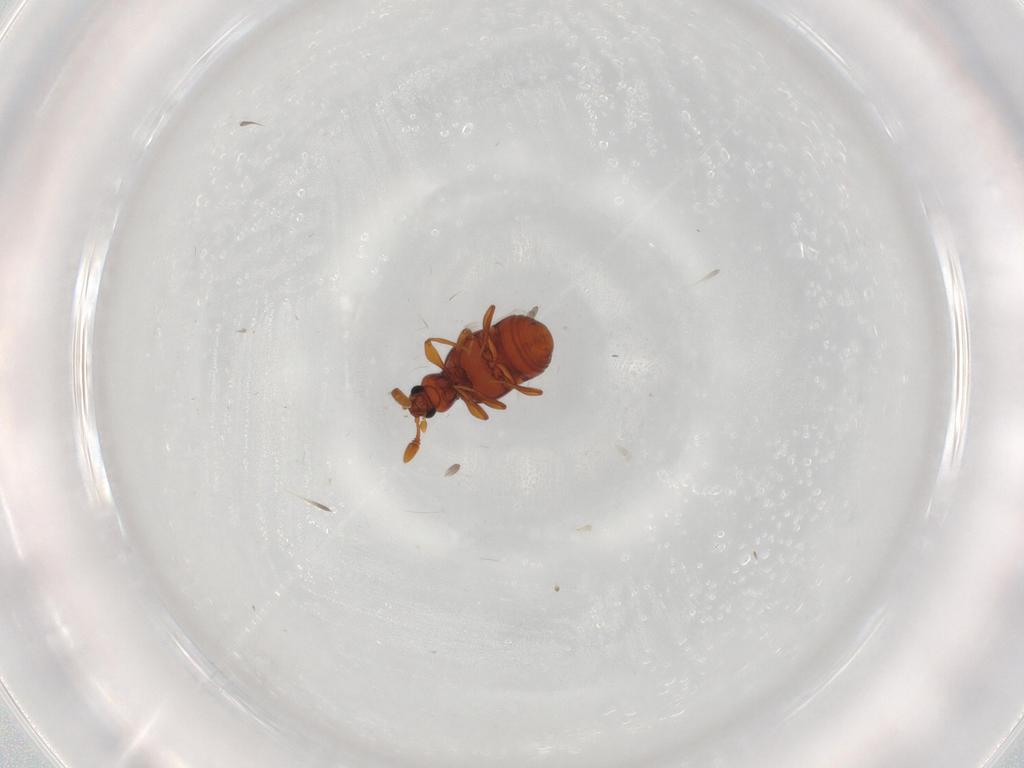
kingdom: Animalia
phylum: Arthropoda
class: Insecta
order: Coleoptera
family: Staphylinidae
